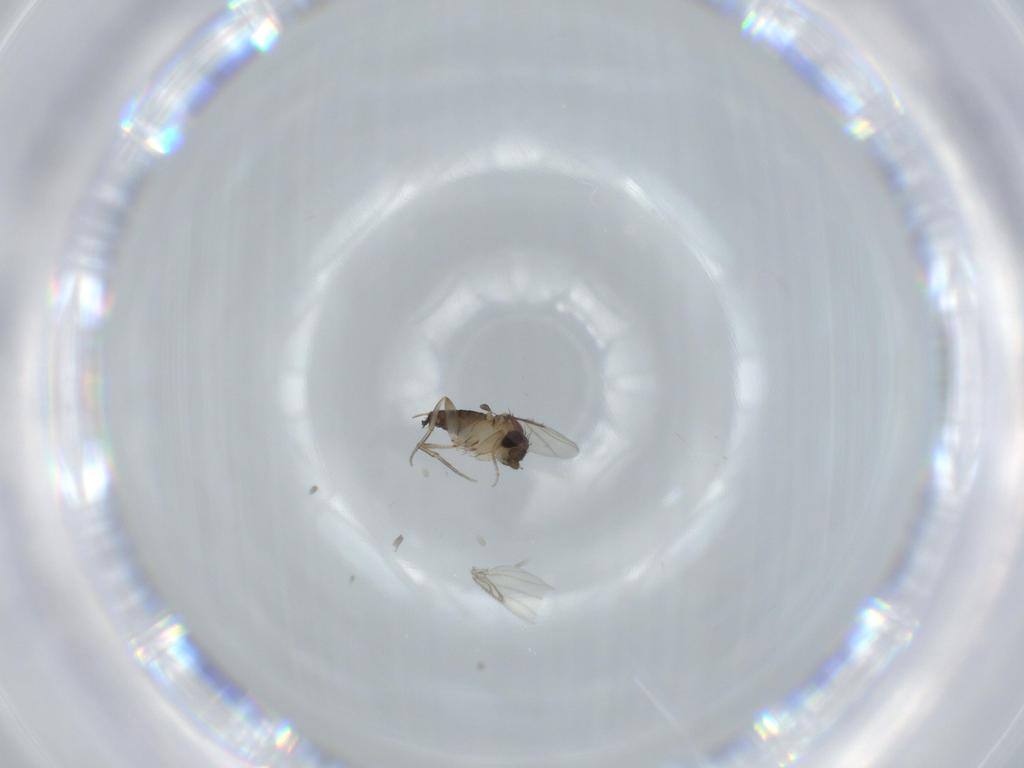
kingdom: Animalia
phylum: Arthropoda
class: Insecta
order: Diptera
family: Phoridae
